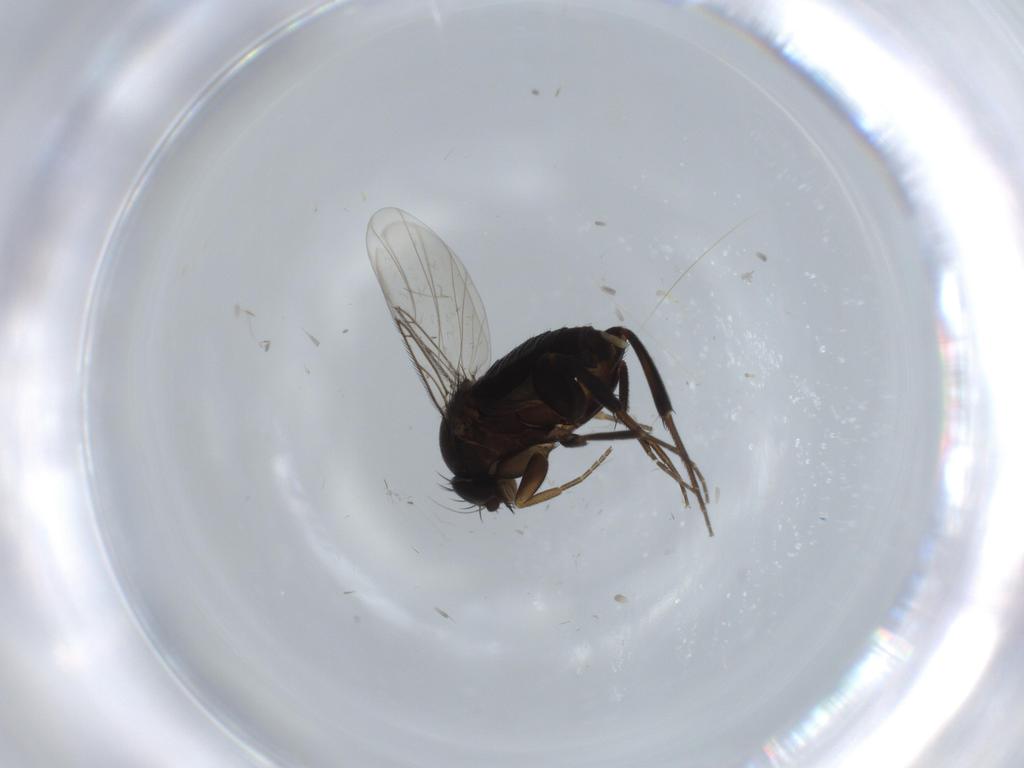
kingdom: Animalia
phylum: Arthropoda
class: Insecta
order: Diptera
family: Phoridae
